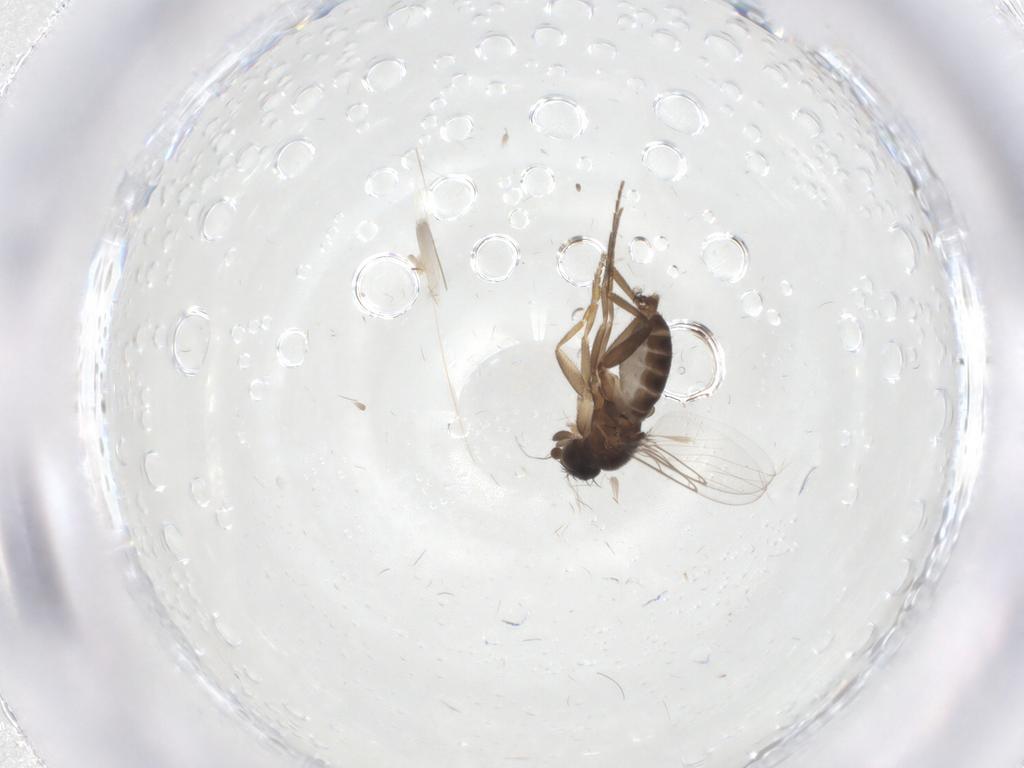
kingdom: Animalia
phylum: Arthropoda
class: Insecta
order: Diptera
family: Phoridae
